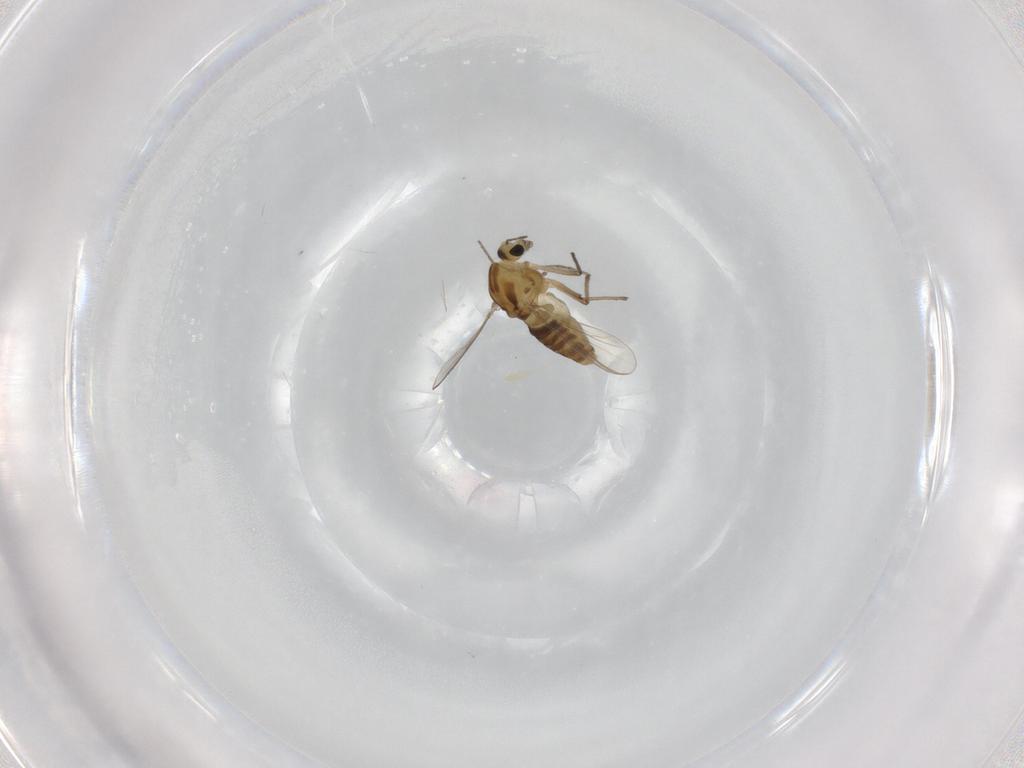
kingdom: Animalia
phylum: Arthropoda
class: Insecta
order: Diptera
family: Chironomidae
